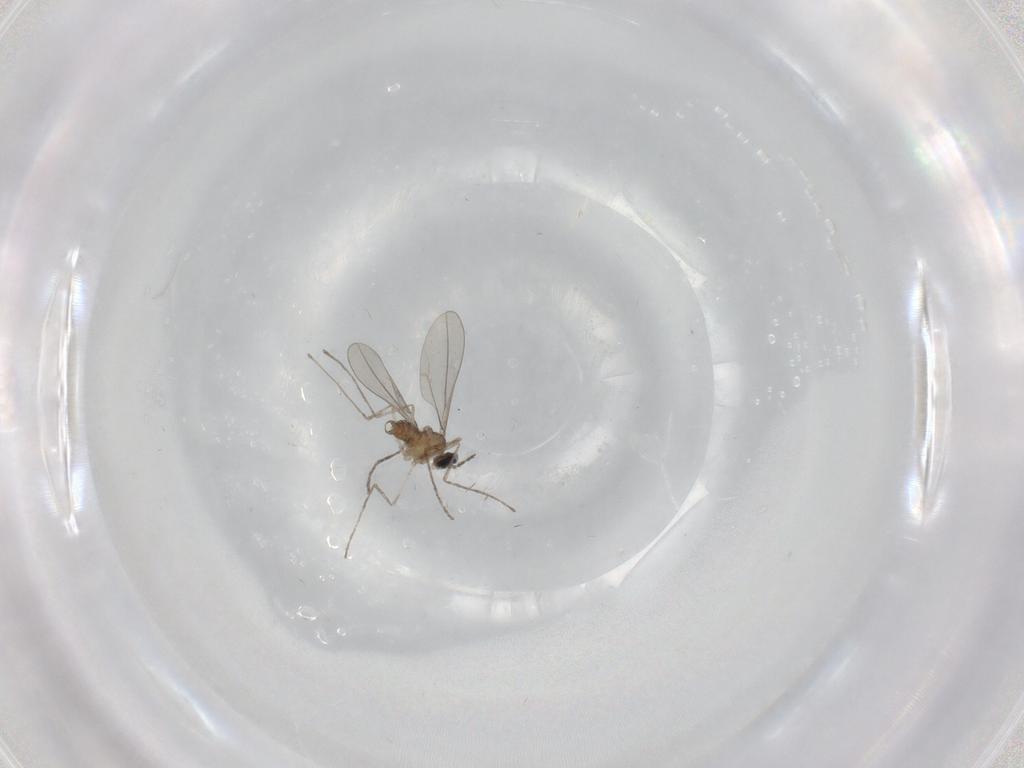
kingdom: Animalia
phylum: Arthropoda
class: Insecta
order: Diptera
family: Cecidomyiidae
